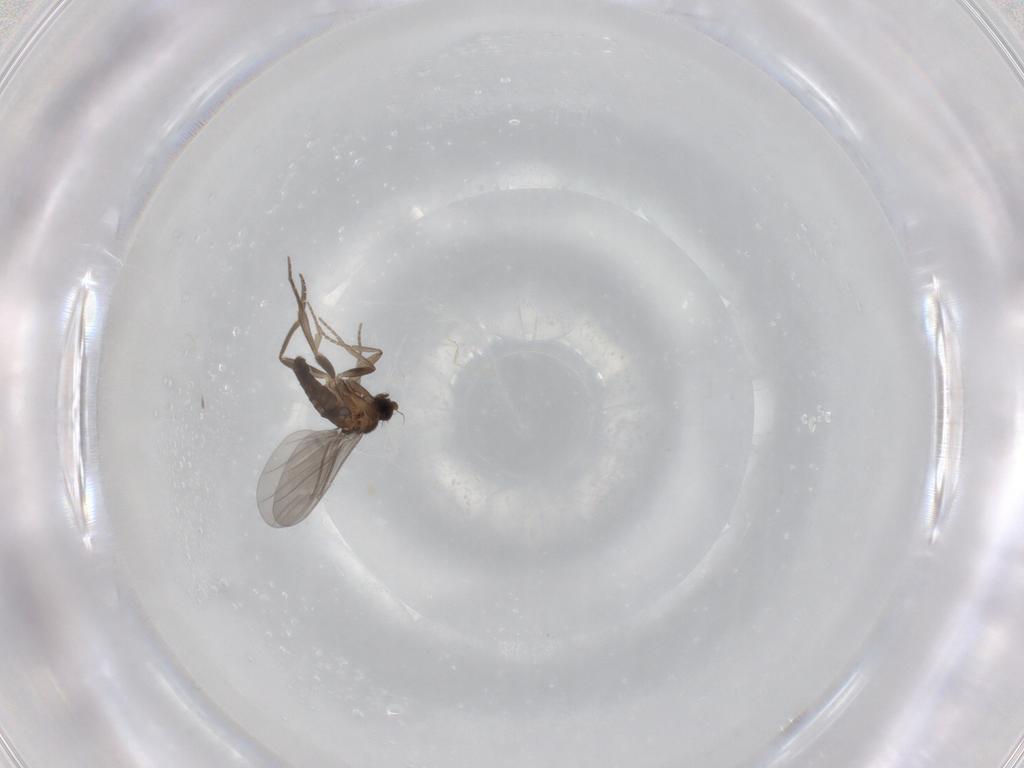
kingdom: Animalia
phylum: Arthropoda
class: Insecta
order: Diptera
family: Phoridae
